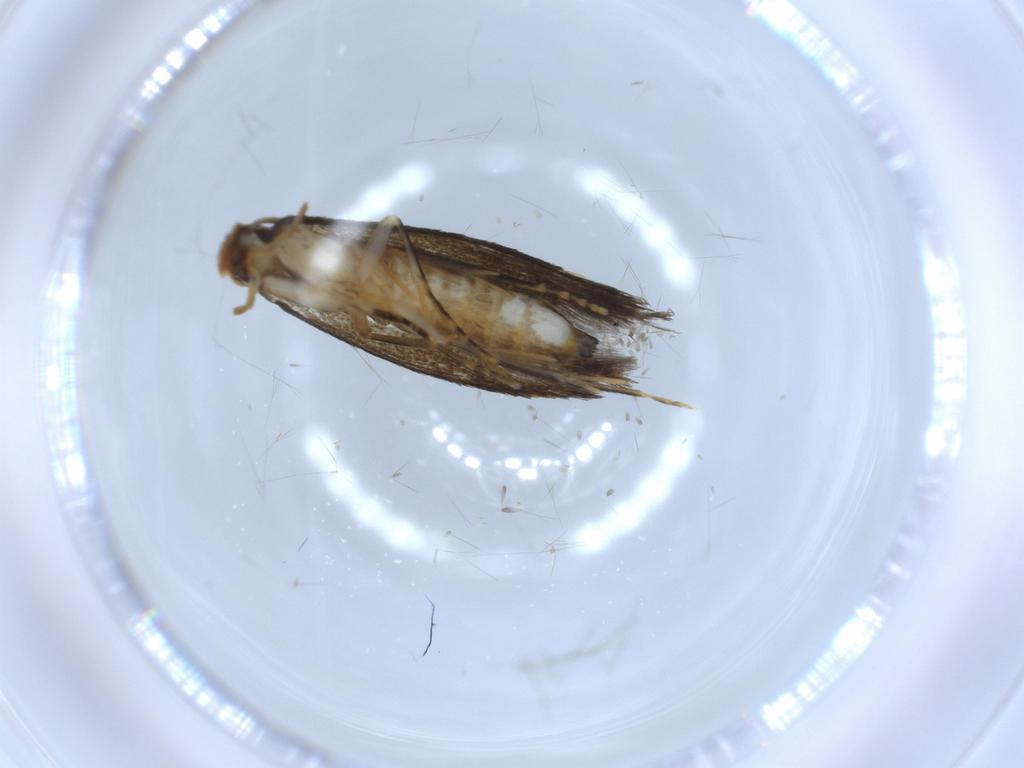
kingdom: Animalia
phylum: Arthropoda
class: Insecta
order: Lepidoptera
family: Tineidae
